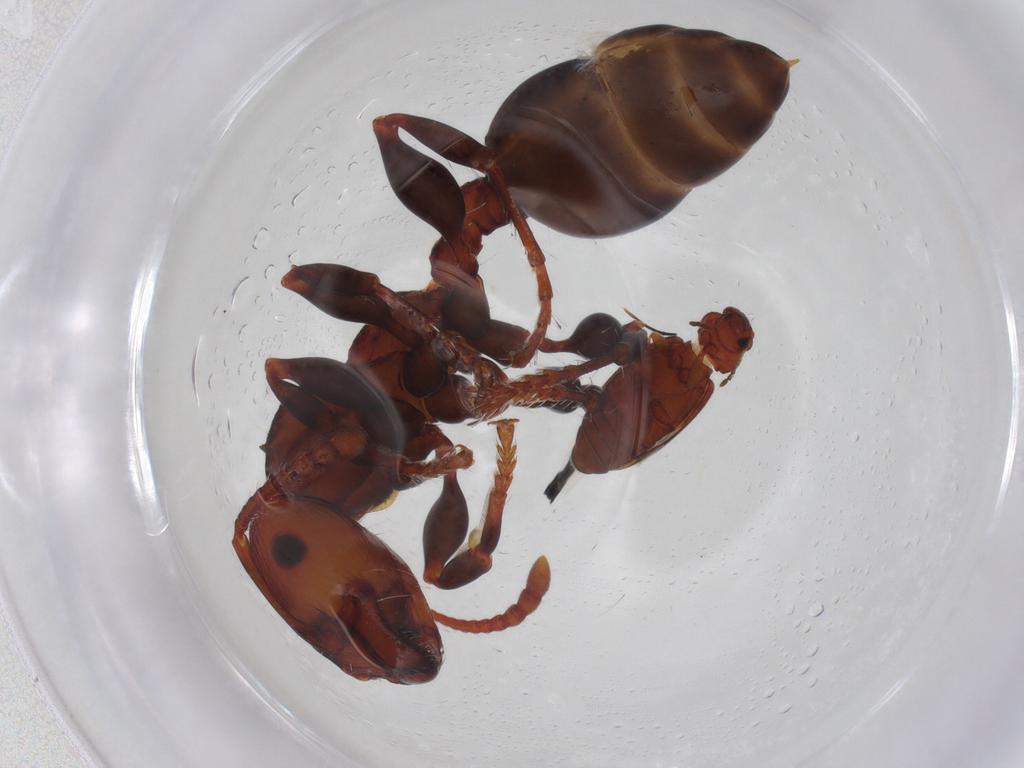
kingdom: Animalia
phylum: Arthropoda
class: Insecta
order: Hymenoptera
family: Formicidae
